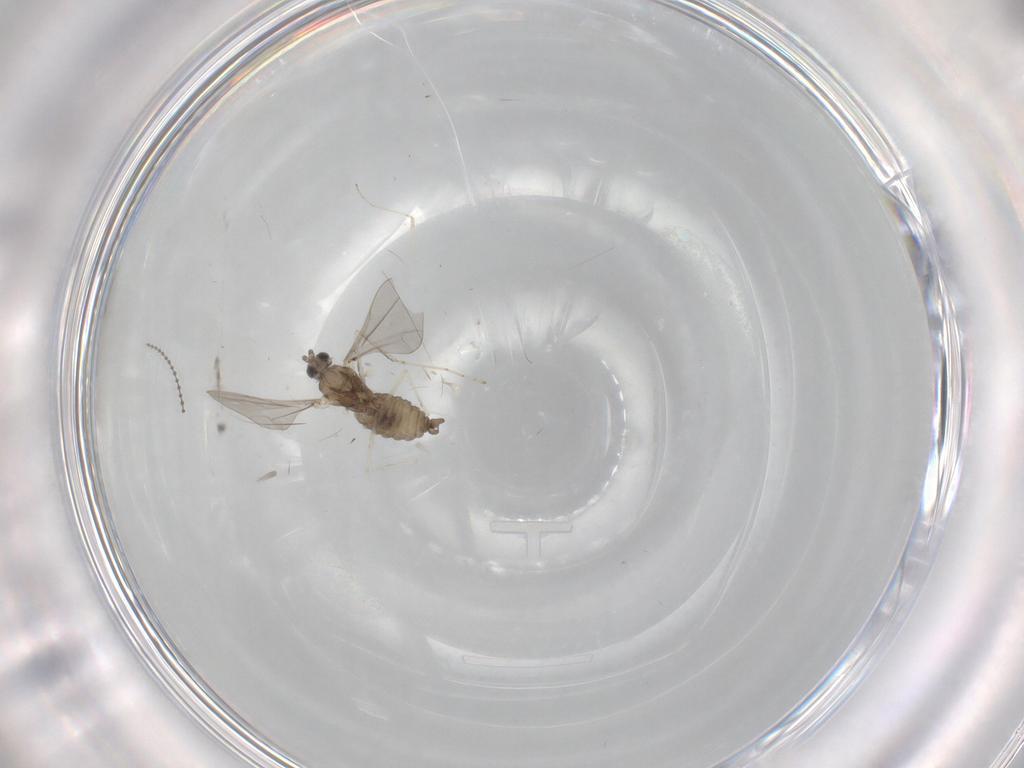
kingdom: Animalia
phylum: Arthropoda
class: Insecta
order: Diptera
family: Chironomidae
